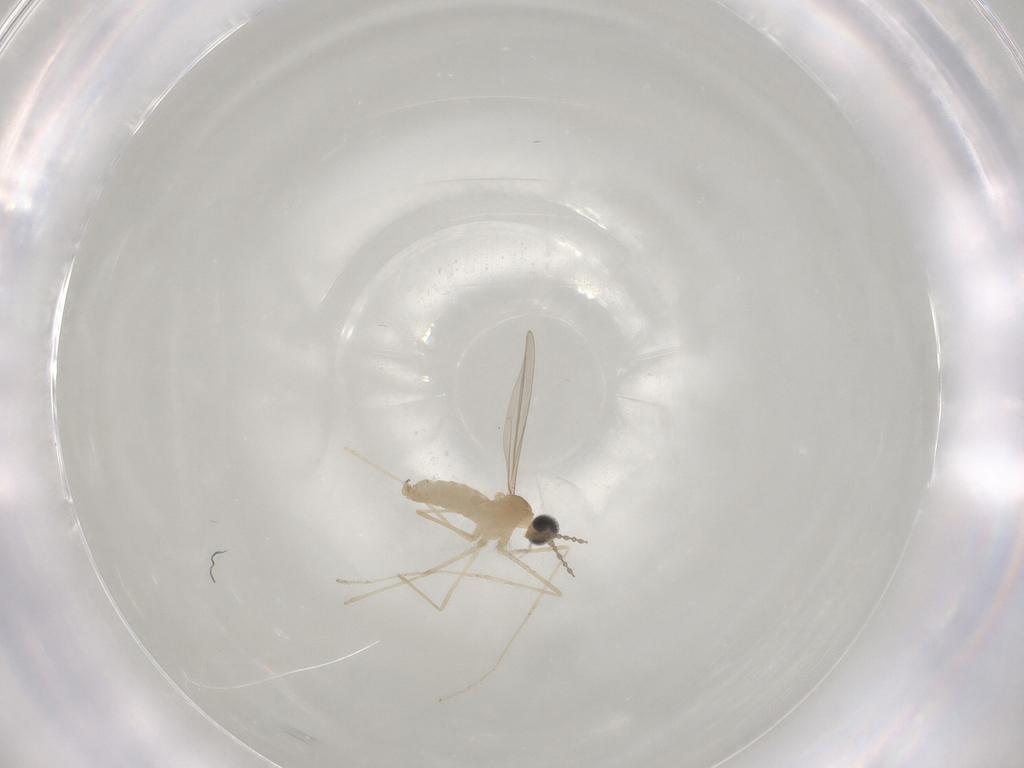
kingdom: Animalia
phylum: Arthropoda
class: Insecta
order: Diptera
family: Cecidomyiidae
